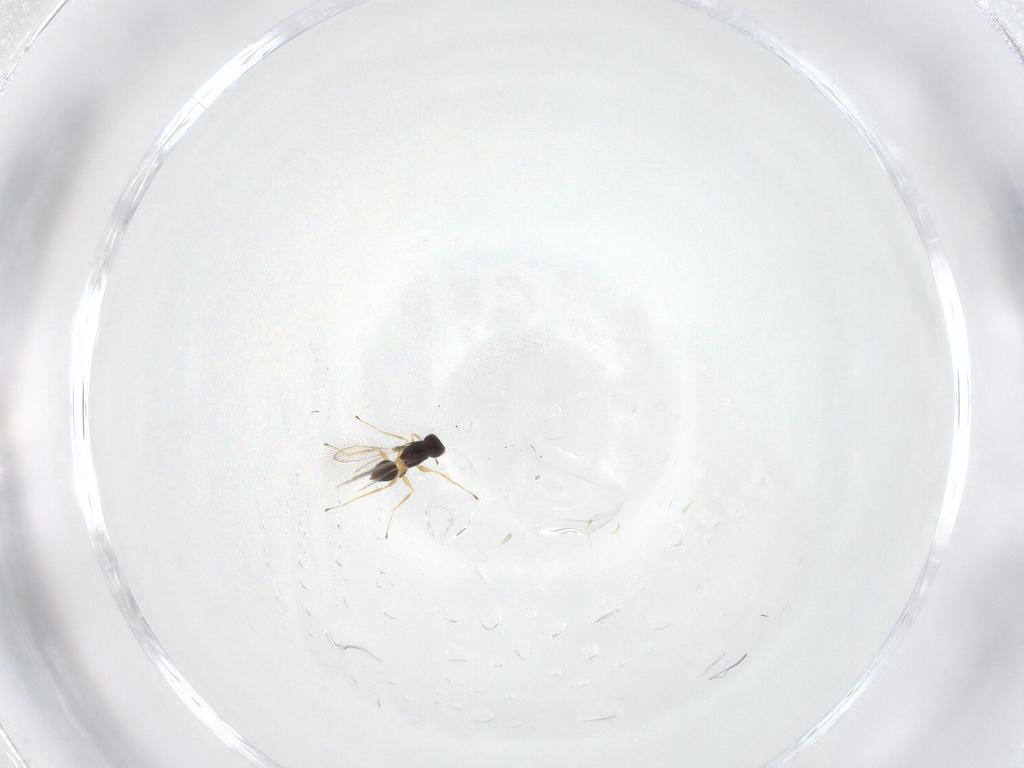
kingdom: Animalia
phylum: Arthropoda
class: Insecta
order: Hymenoptera
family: Mymaridae
